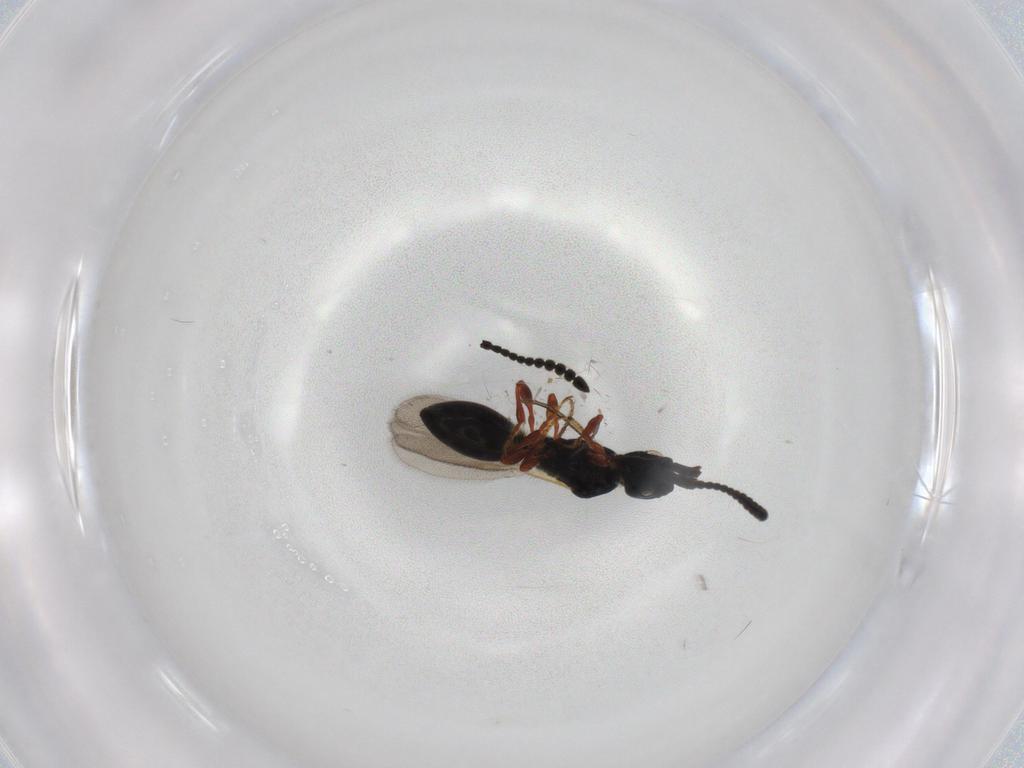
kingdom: Animalia
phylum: Arthropoda
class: Insecta
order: Hymenoptera
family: Diapriidae
